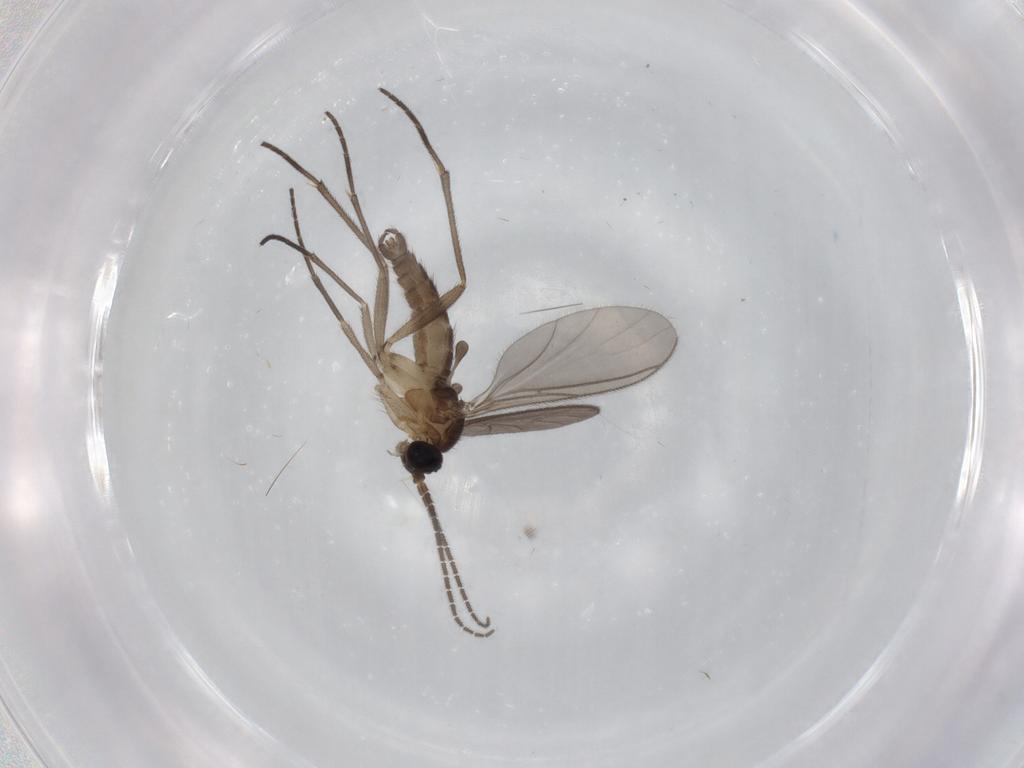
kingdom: Animalia
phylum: Arthropoda
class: Insecta
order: Diptera
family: Sciaridae
